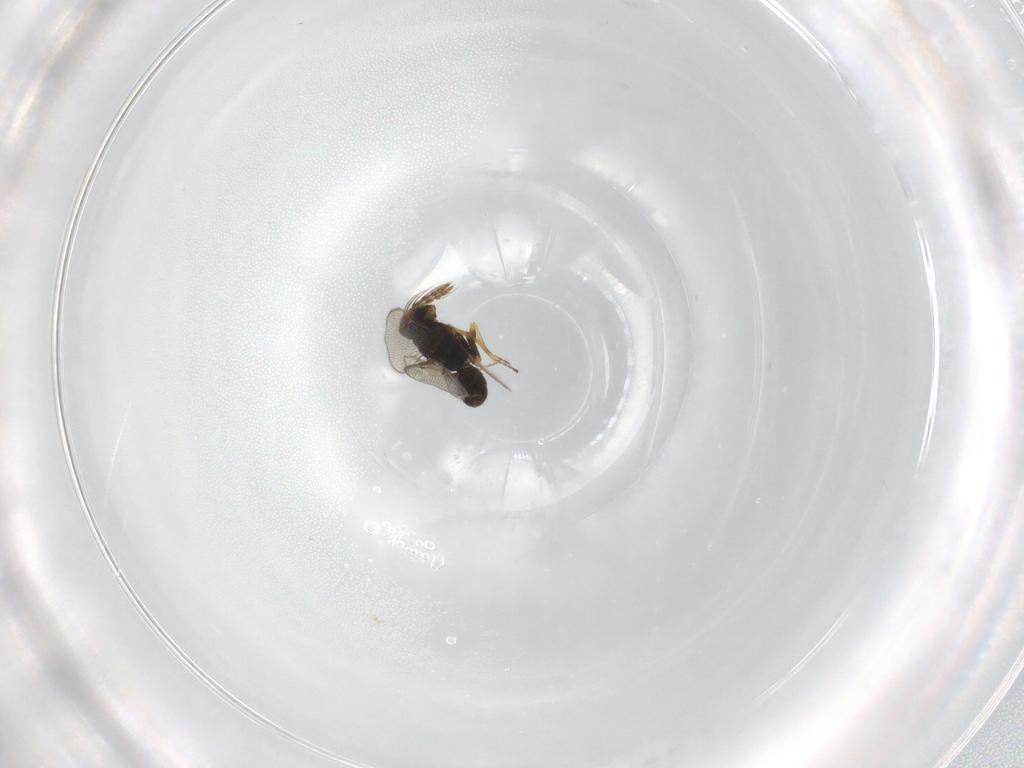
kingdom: Animalia
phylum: Arthropoda
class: Insecta
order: Hymenoptera
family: Eulophidae
